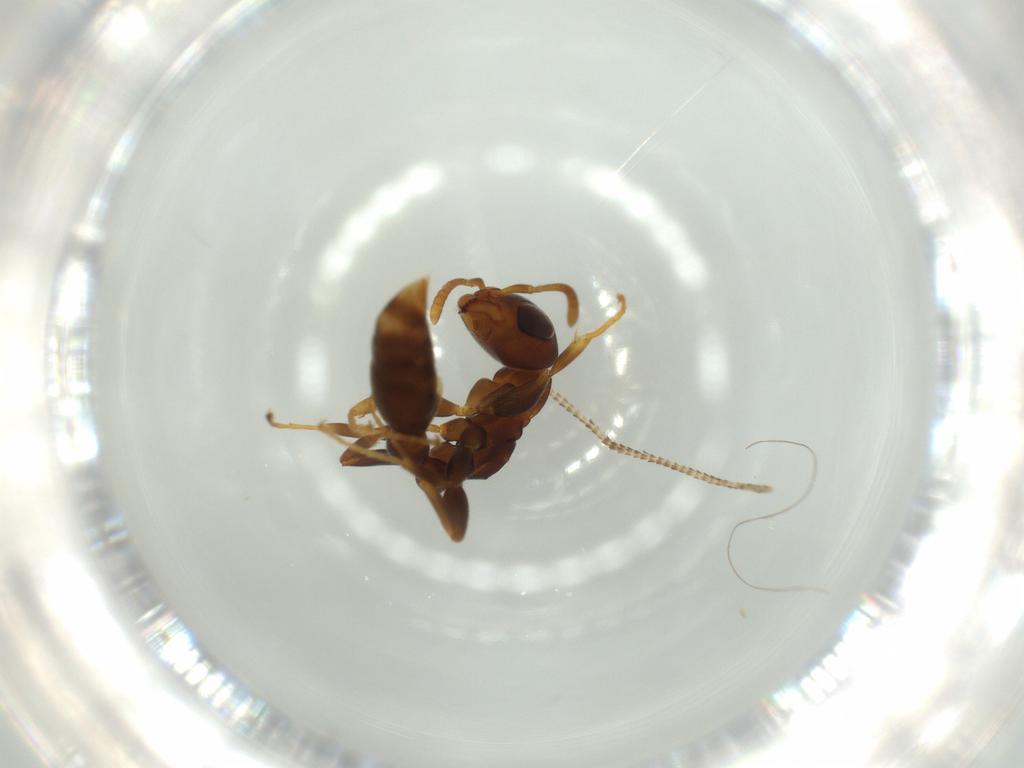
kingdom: Animalia
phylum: Arthropoda
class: Insecta
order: Hymenoptera
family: Formicidae
